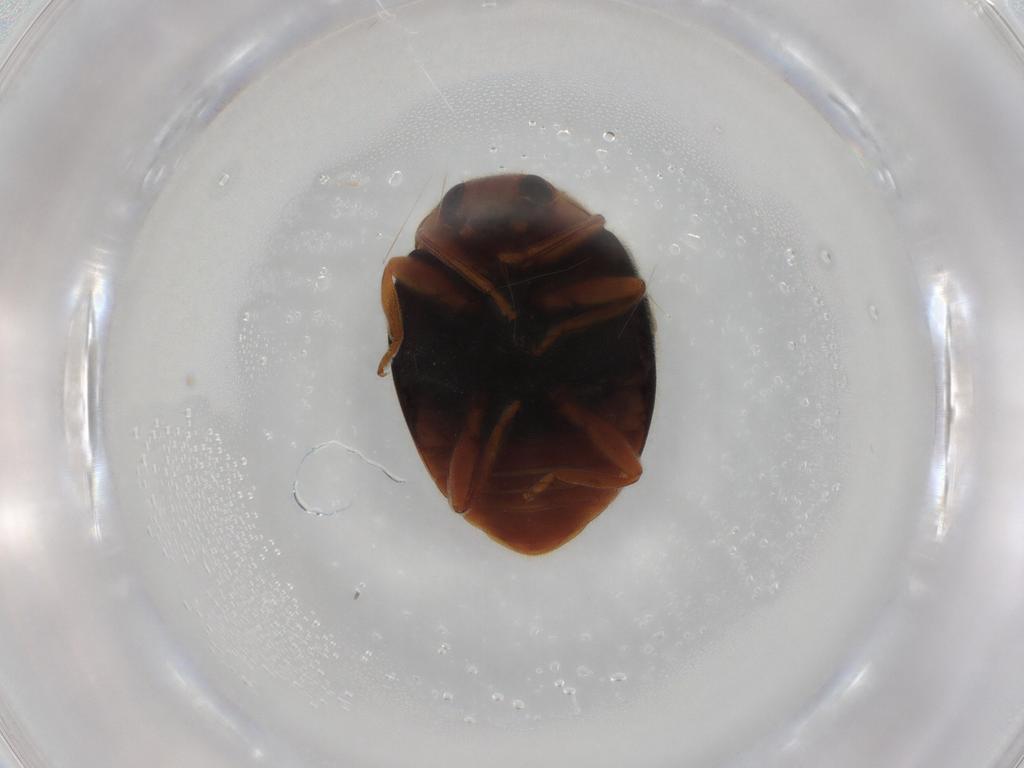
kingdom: Animalia
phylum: Arthropoda
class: Insecta
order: Coleoptera
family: Coccinellidae
